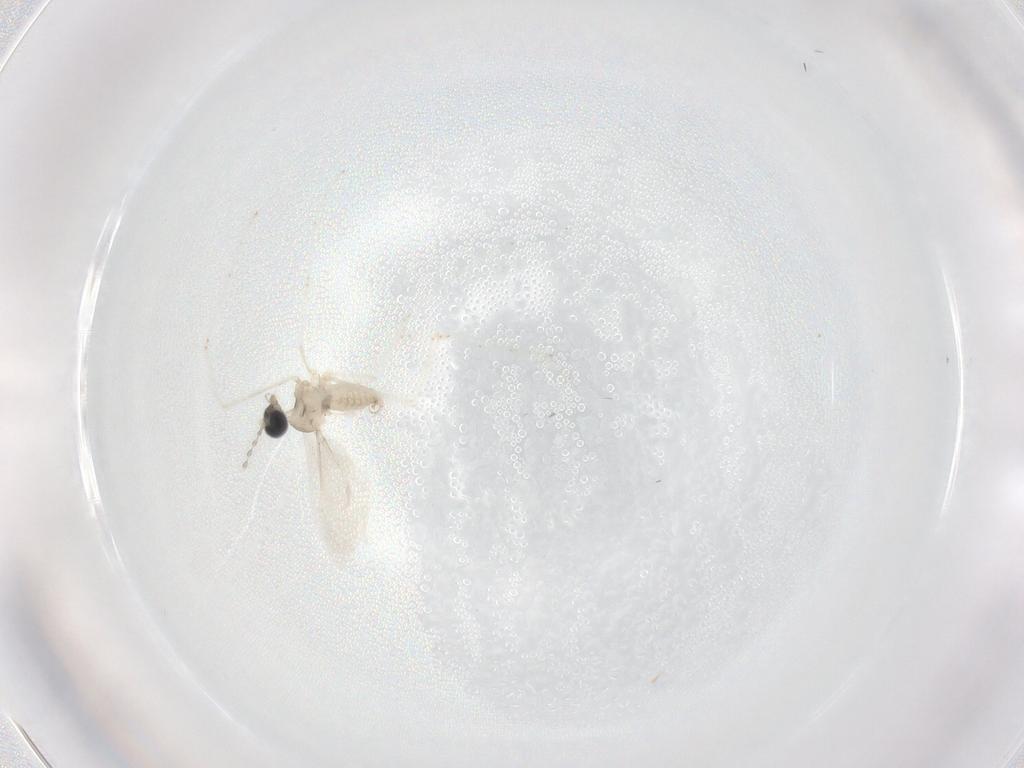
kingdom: Animalia
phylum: Arthropoda
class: Insecta
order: Diptera
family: Cecidomyiidae
